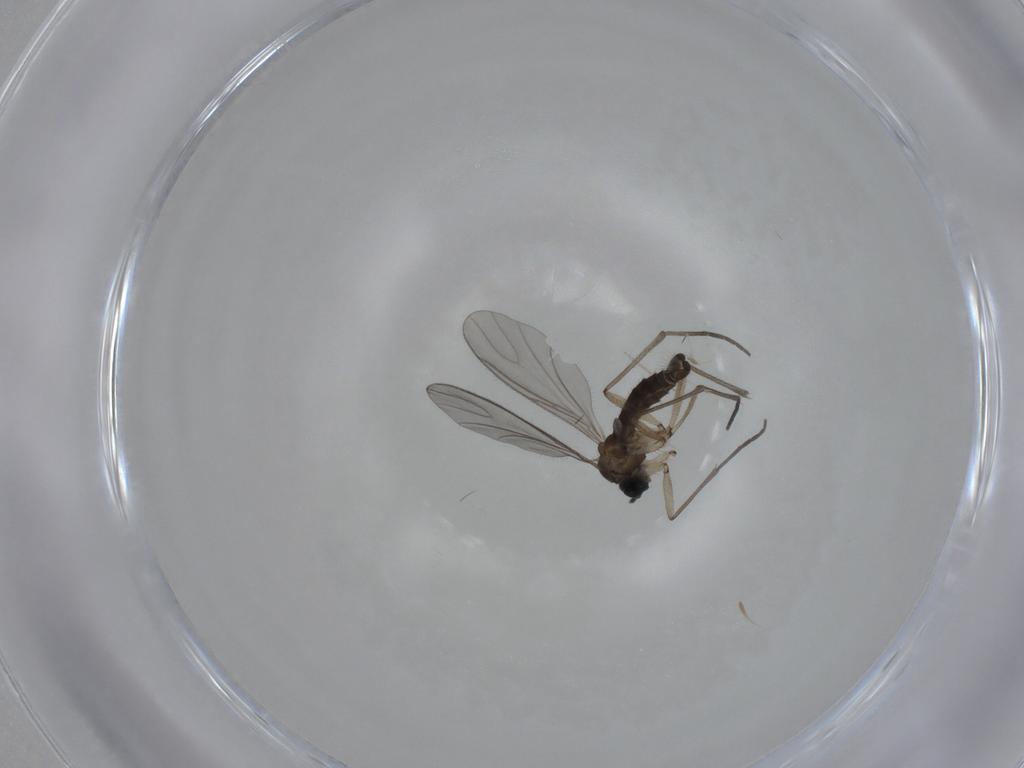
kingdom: Animalia
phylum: Arthropoda
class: Insecta
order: Diptera
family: Sciaridae
